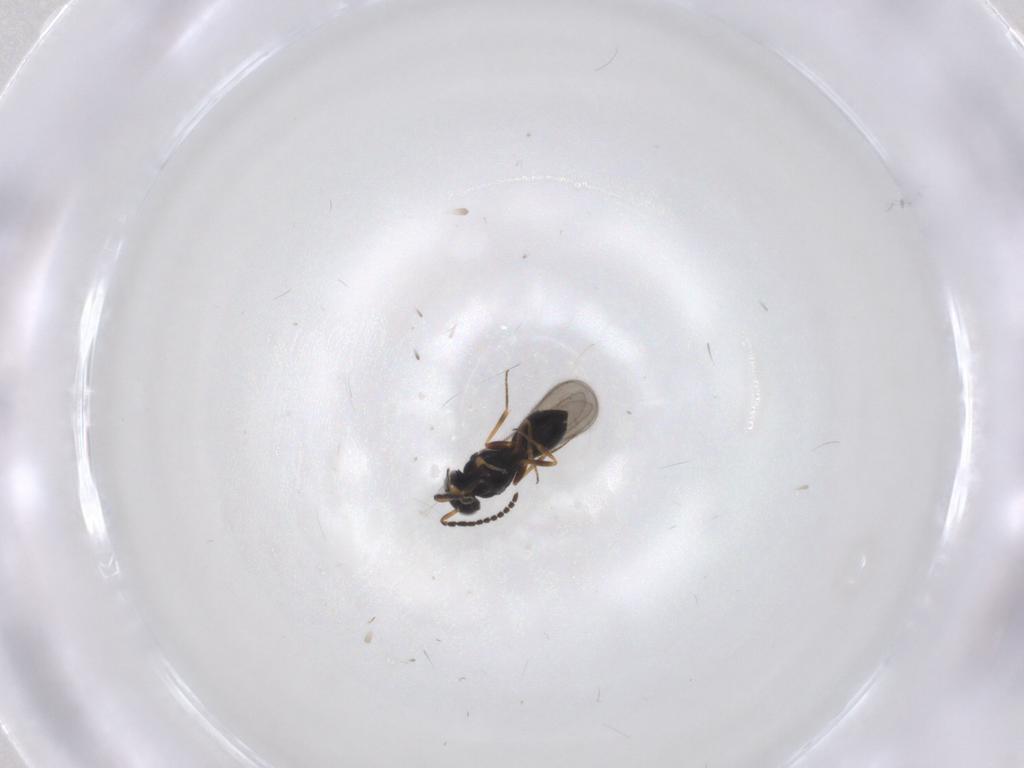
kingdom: Animalia
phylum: Arthropoda
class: Insecta
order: Hymenoptera
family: Scelionidae
